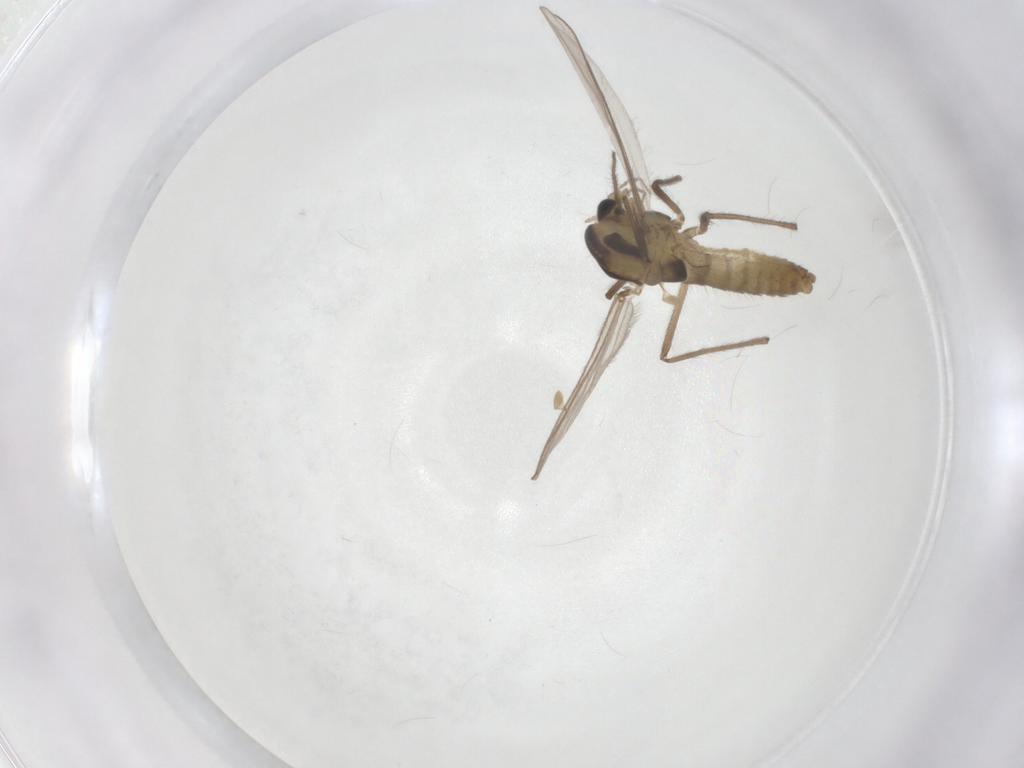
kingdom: Animalia
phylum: Arthropoda
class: Insecta
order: Diptera
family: Chironomidae
